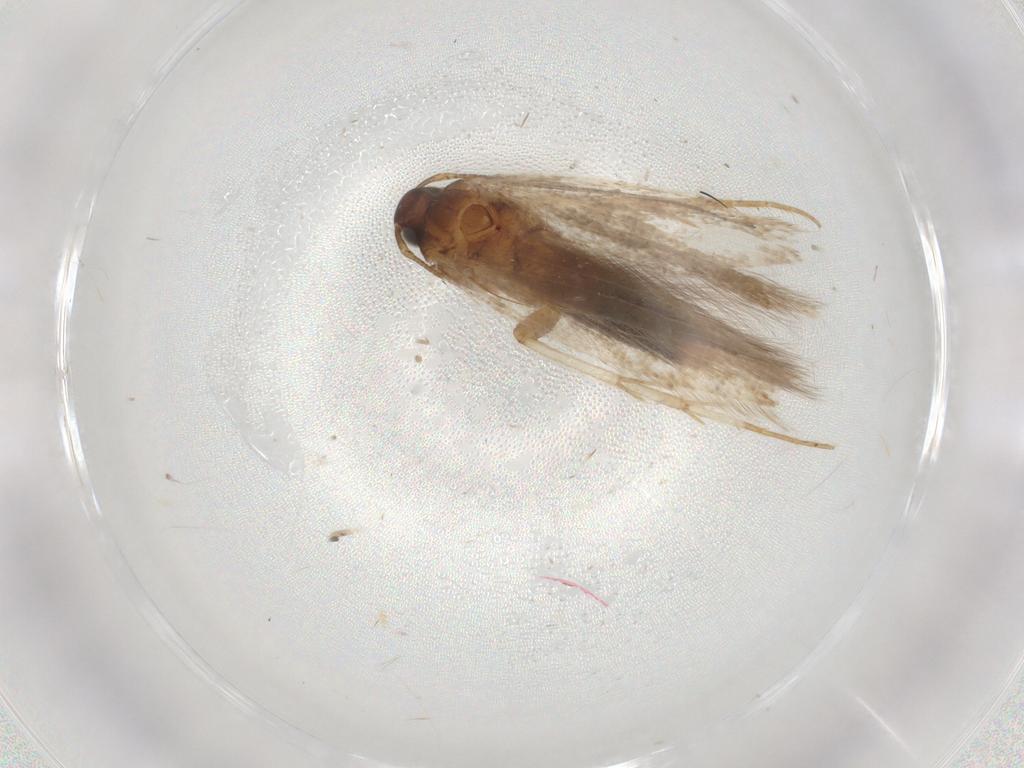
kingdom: Animalia
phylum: Arthropoda
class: Insecta
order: Lepidoptera
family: Gelechiidae
